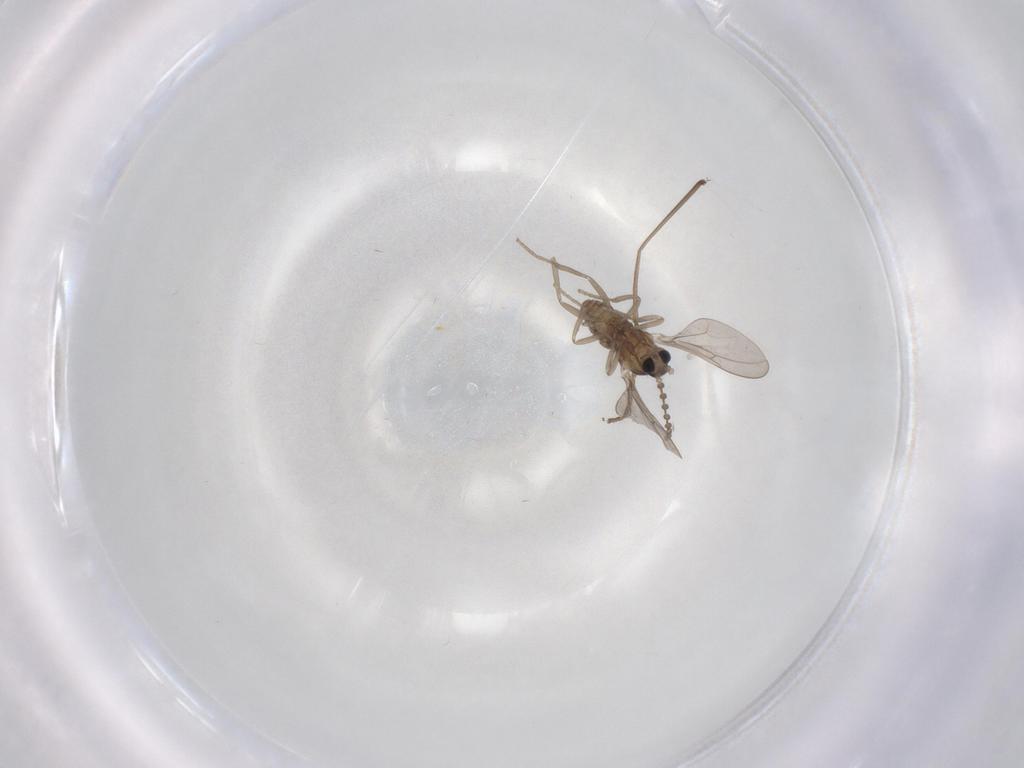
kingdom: Animalia
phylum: Arthropoda
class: Insecta
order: Diptera
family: Cecidomyiidae
